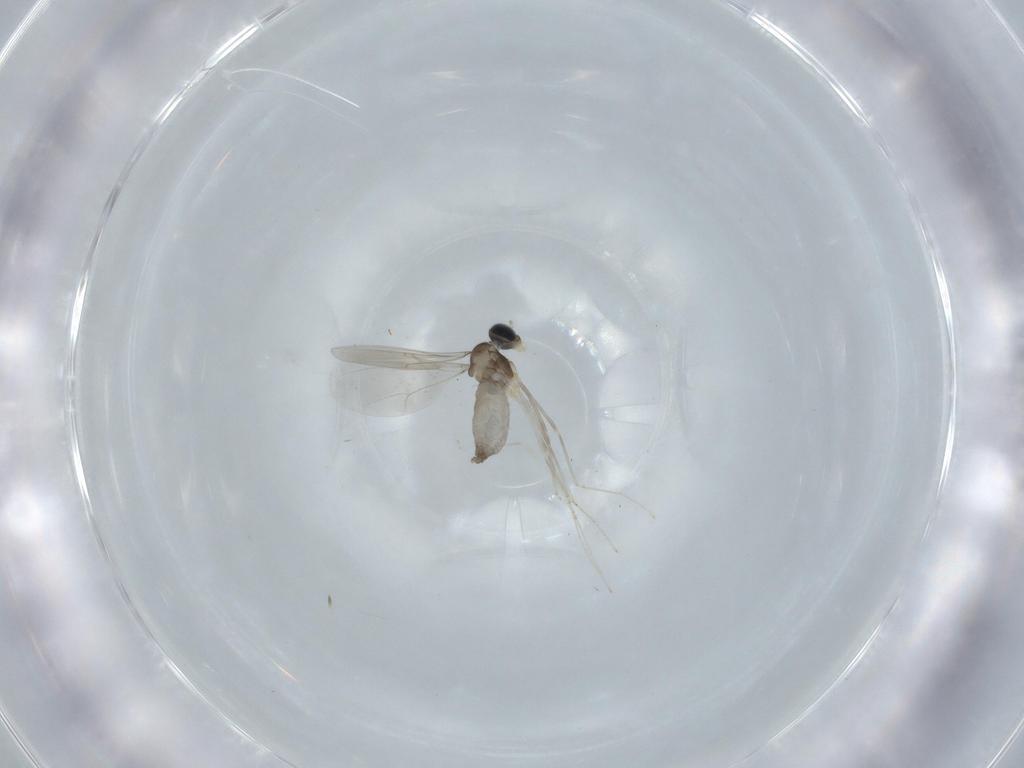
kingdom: Animalia
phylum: Arthropoda
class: Insecta
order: Diptera
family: Cecidomyiidae
